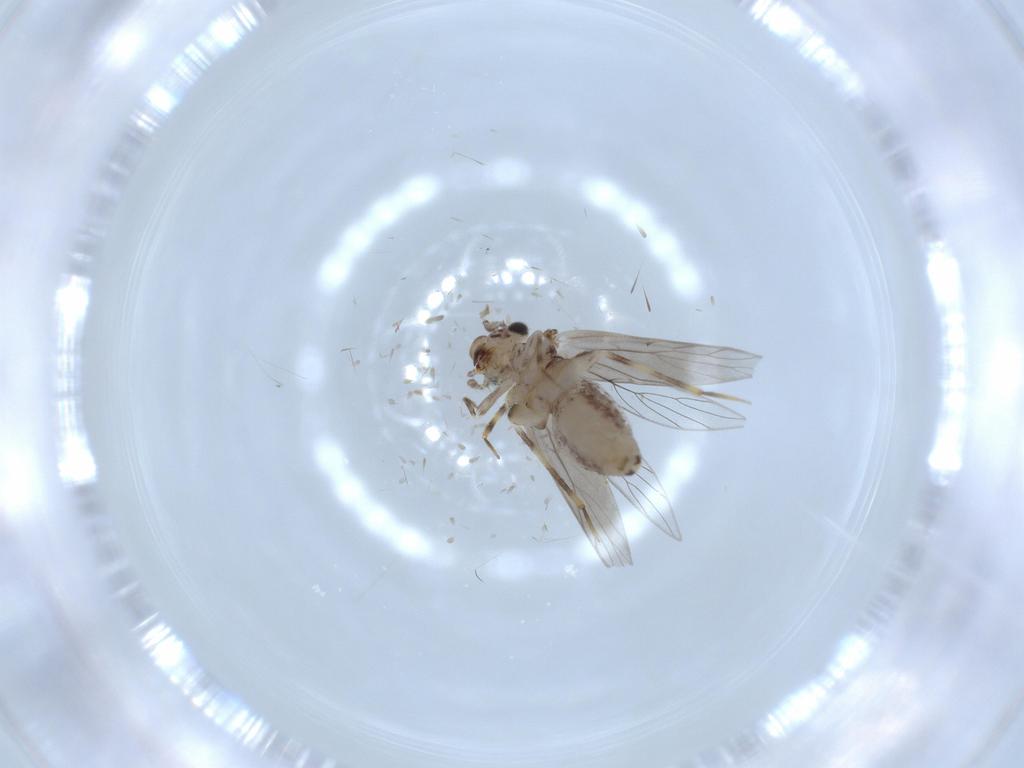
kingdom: Animalia
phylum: Arthropoda
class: Insecta
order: Psocodea
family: Lepidopsocidae
